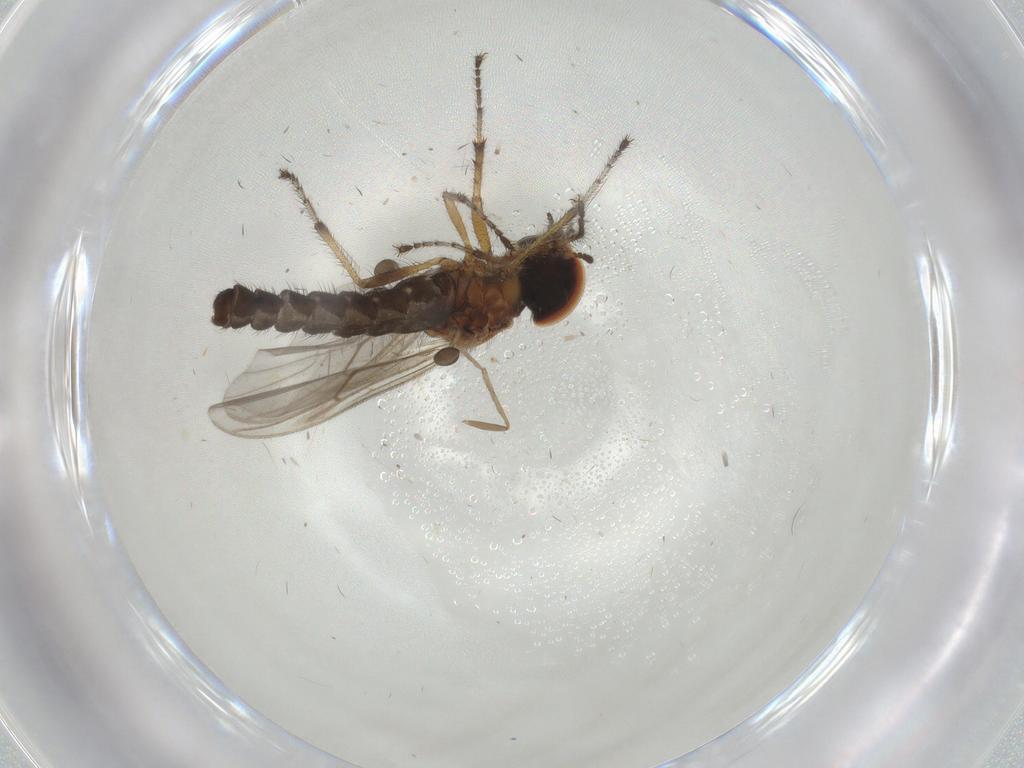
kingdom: Animalia
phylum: Arthropoda
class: Insecta
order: Diptera
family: Bibionidae
